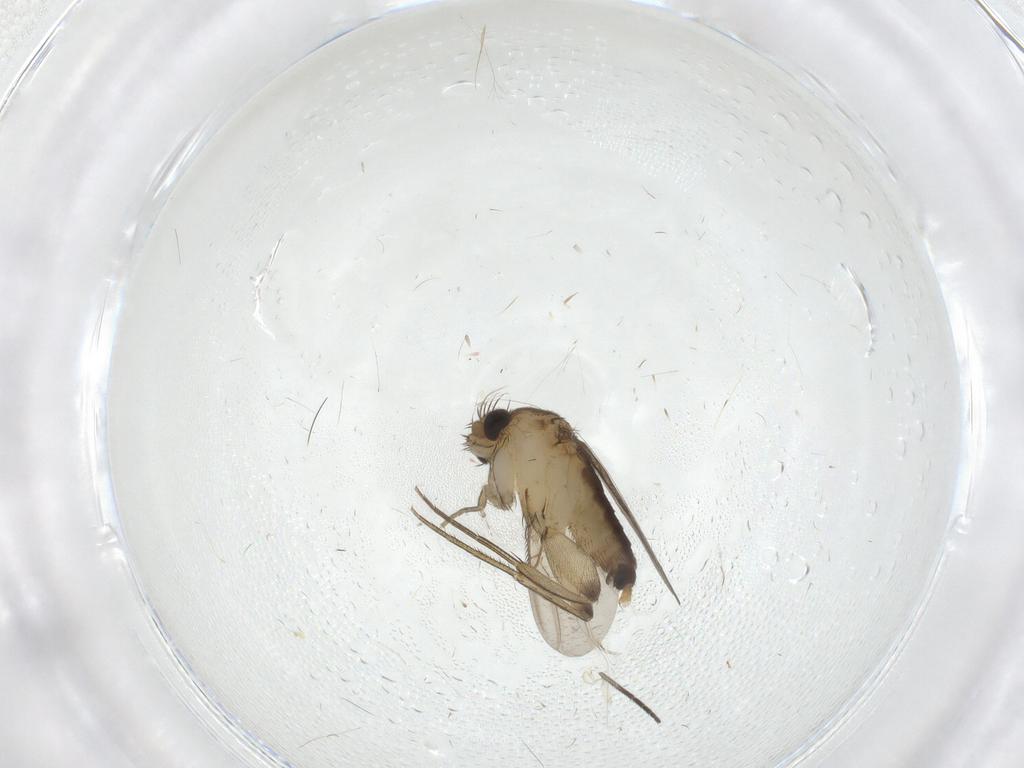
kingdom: Animalia
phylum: Arthropoda
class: Insecta
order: Diptera
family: Phoridae
